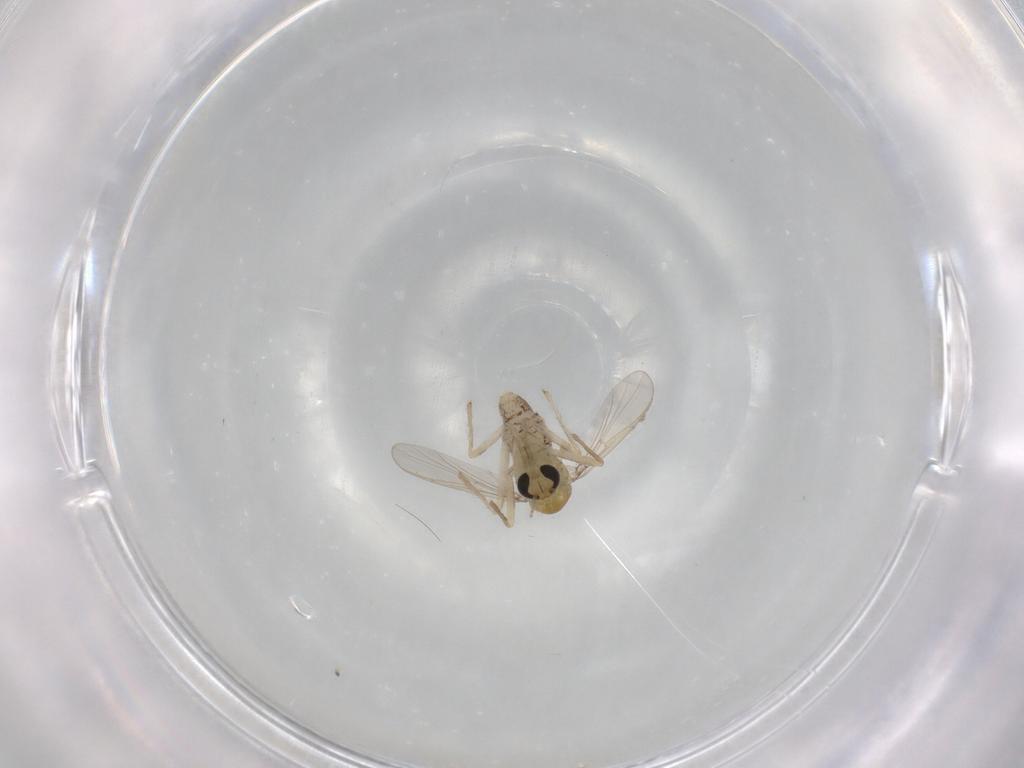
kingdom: Animalia
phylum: Arthropoda
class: Insecta
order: Diptera
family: Chironomidae
